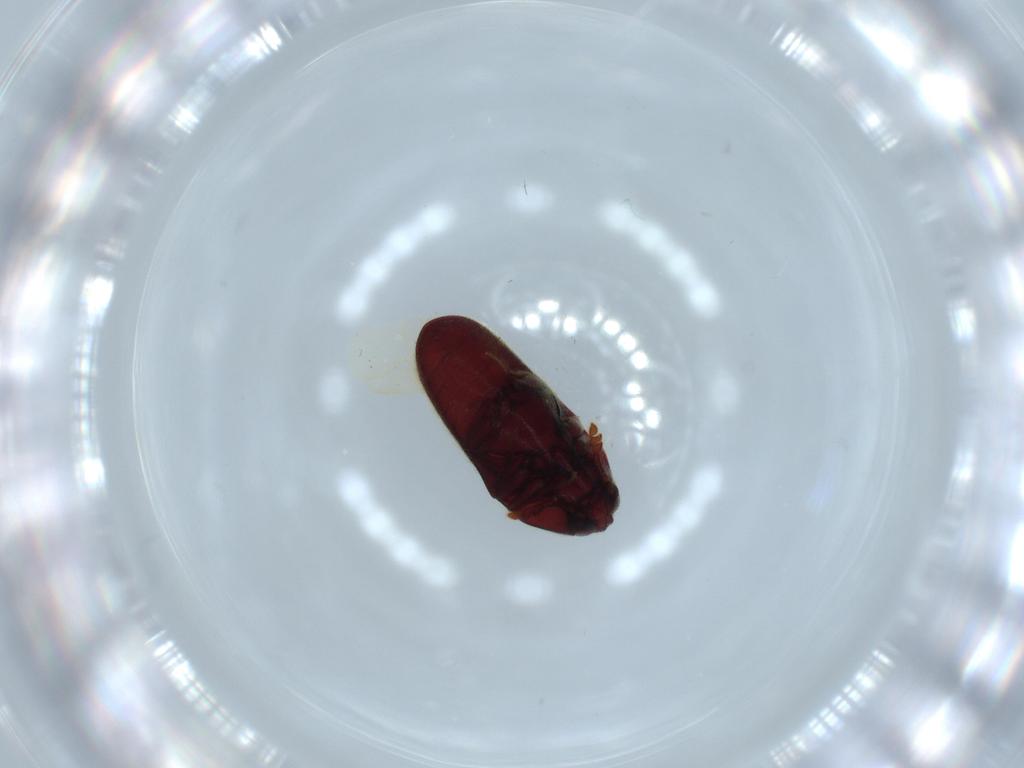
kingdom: Animalia
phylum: Arthropoda
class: Insecta
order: Coleoptera
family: Throscidae
